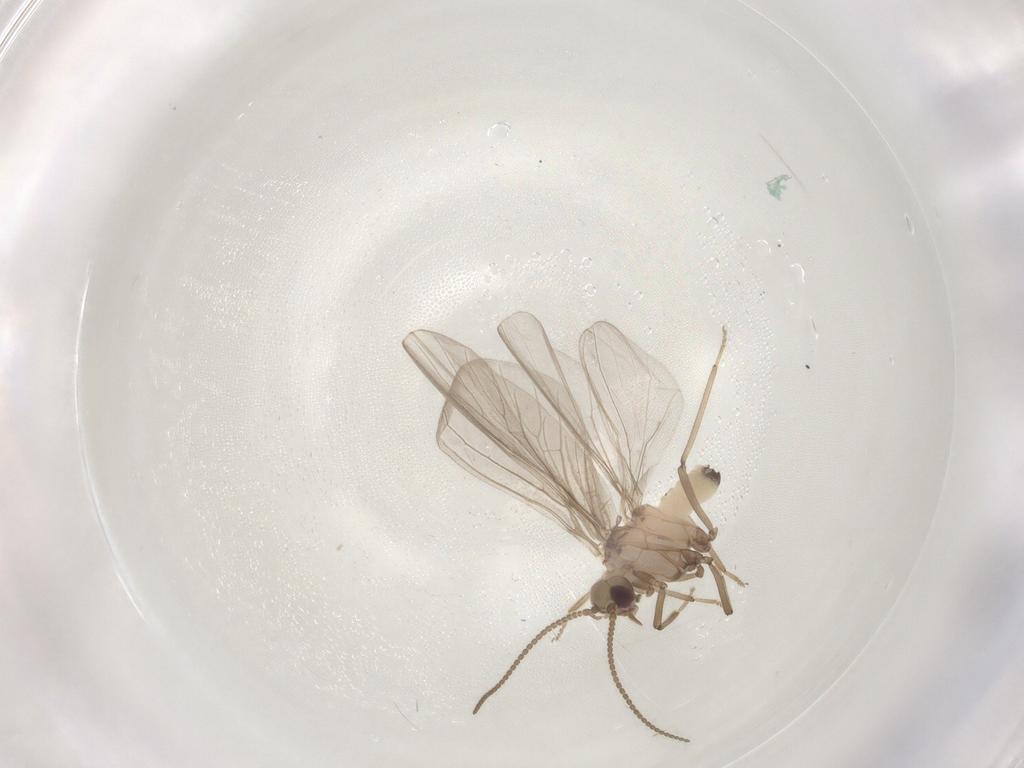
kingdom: Animalia
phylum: Arthropoda
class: Insecta
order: Neuroptera
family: Coniopterygidae
